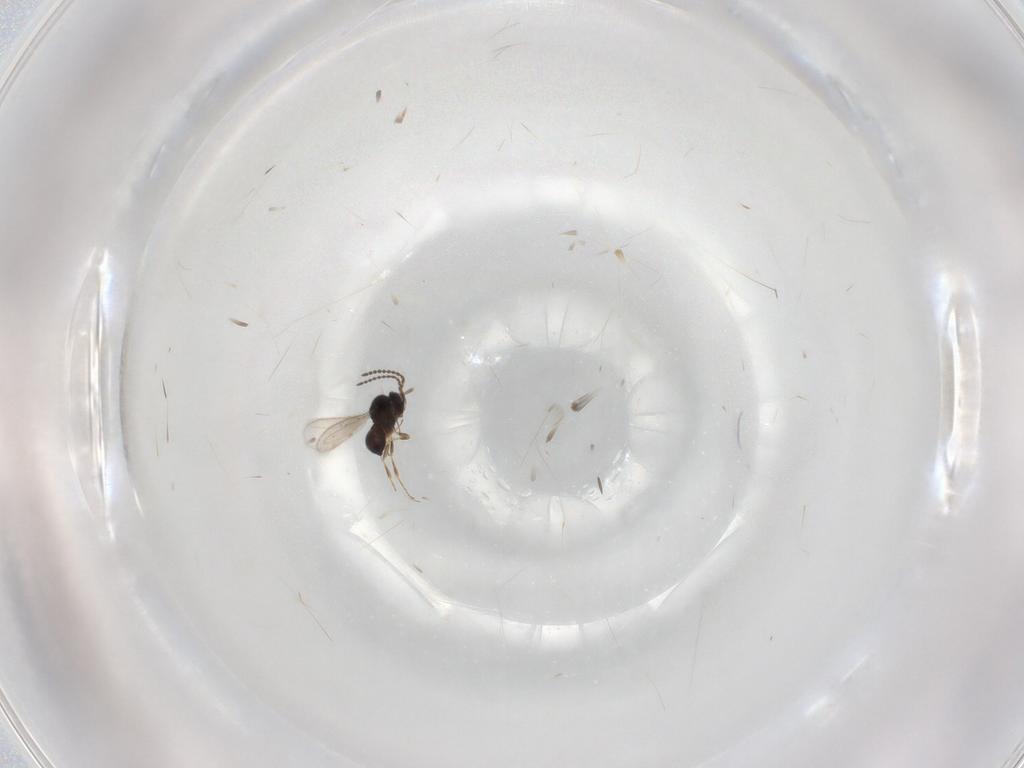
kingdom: Animalia
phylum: Arthropoda
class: Insecta
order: Hymenoptera
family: Scelionidae
